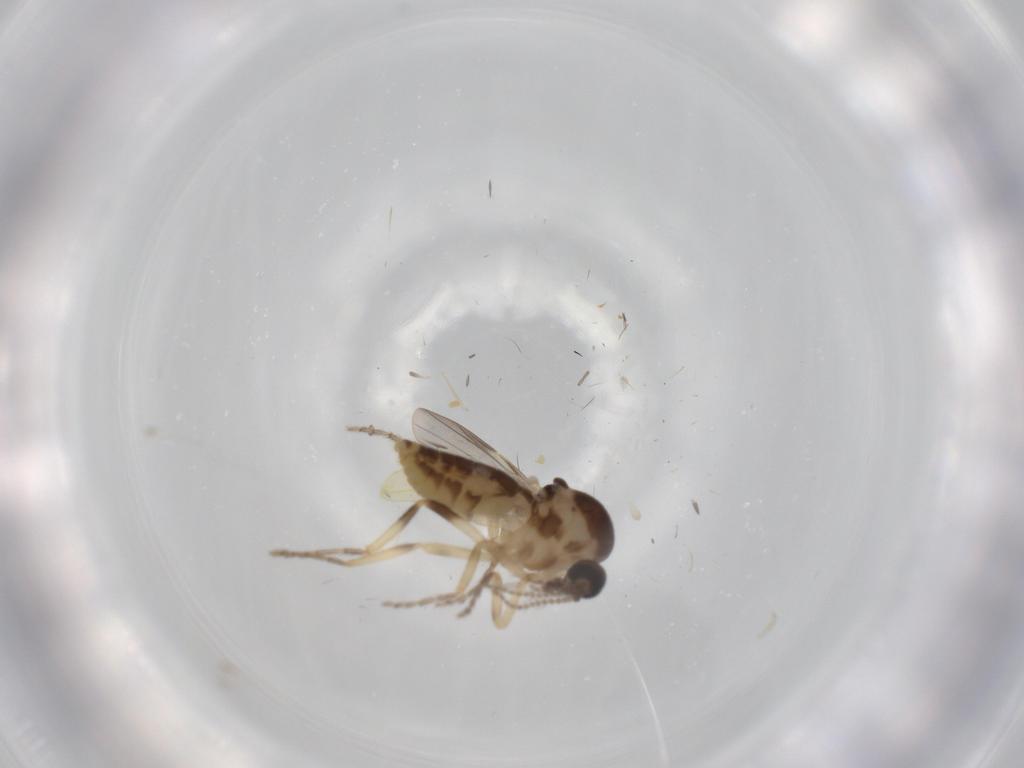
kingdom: Animalia
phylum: Arthropoda
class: Insecta
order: Diptera
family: Ceratopogonidae
